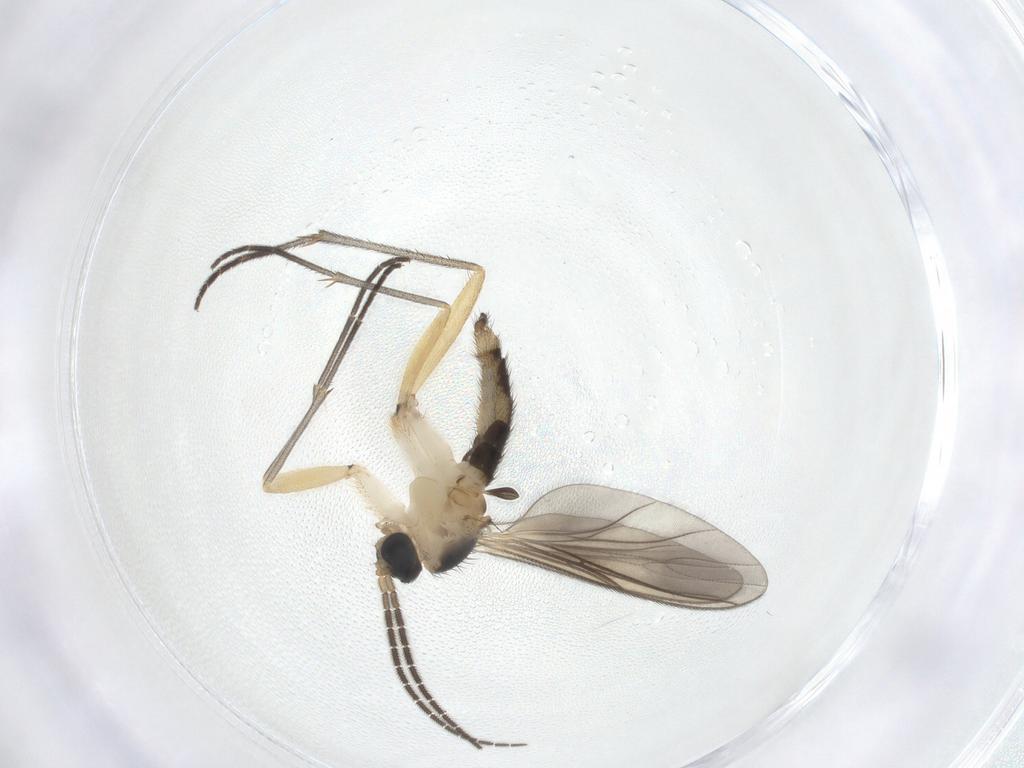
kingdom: Animalia
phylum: Arthropoda
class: Insecta
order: Diptera
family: Sciaridae
